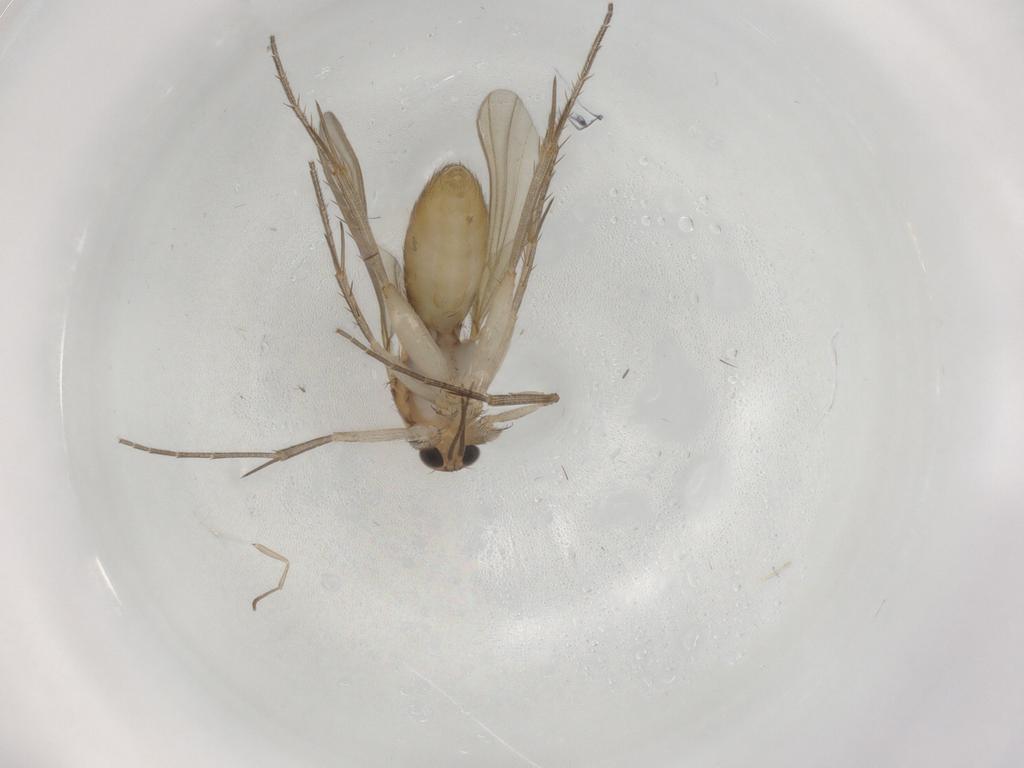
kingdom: Animalia
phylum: Arthropoda
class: Insecta
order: Diptera
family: Mycetophilidae
